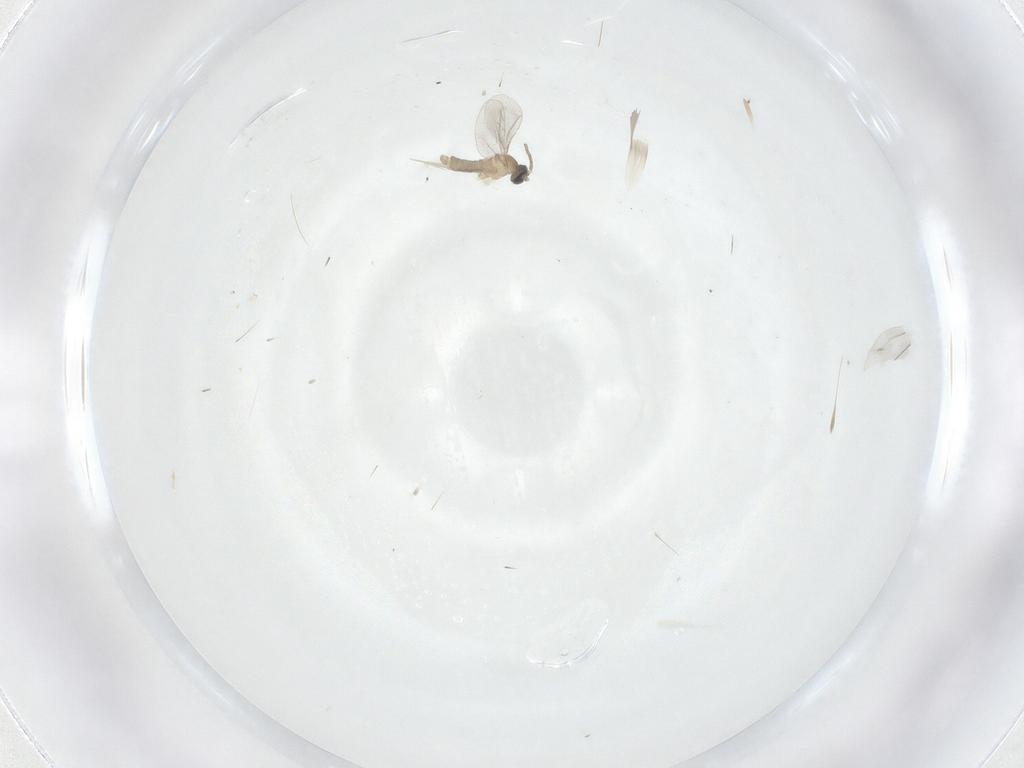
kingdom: Animalia
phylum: Arthropoda
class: Insecta
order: Diptera
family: Cecidomyiidae
